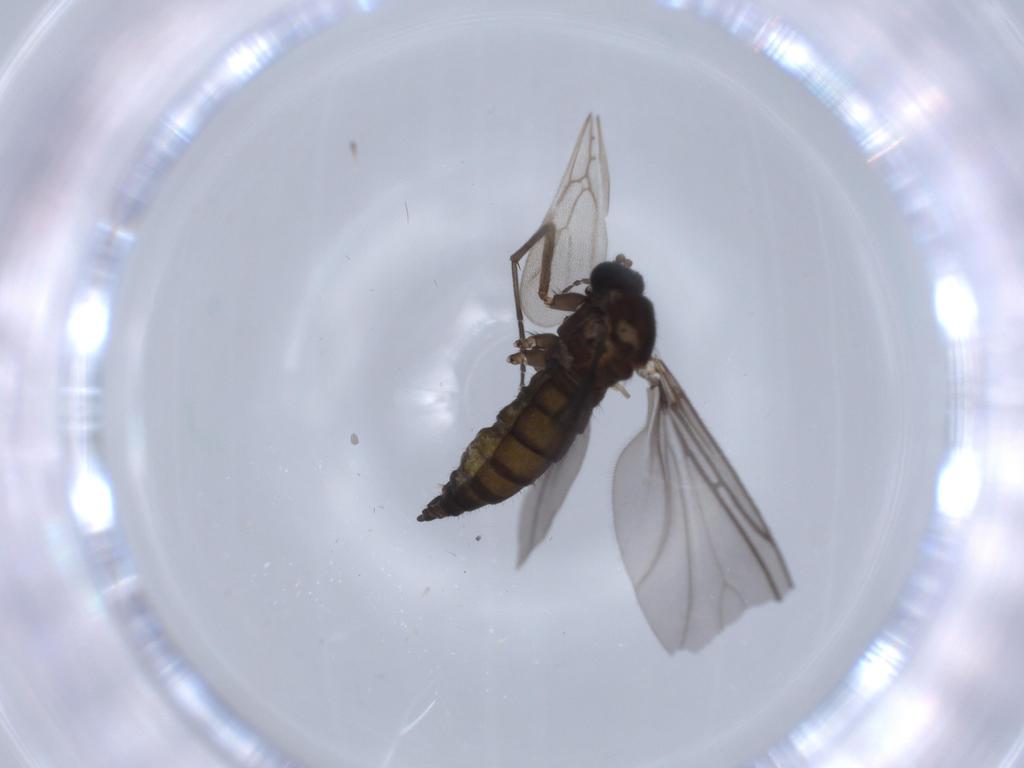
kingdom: Animalia
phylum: Arthropoda
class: Insecta
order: Diptera
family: Sciaridae
